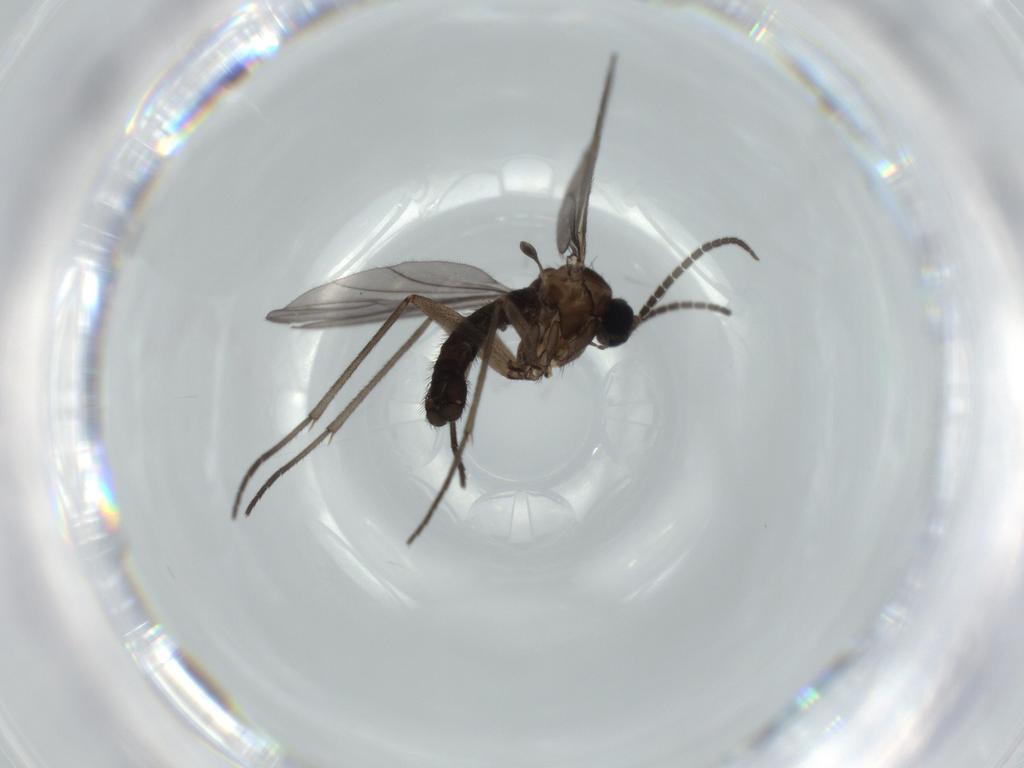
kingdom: Animalia
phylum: Arthropoda
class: Insecta
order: Diptera
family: Sciaridae
